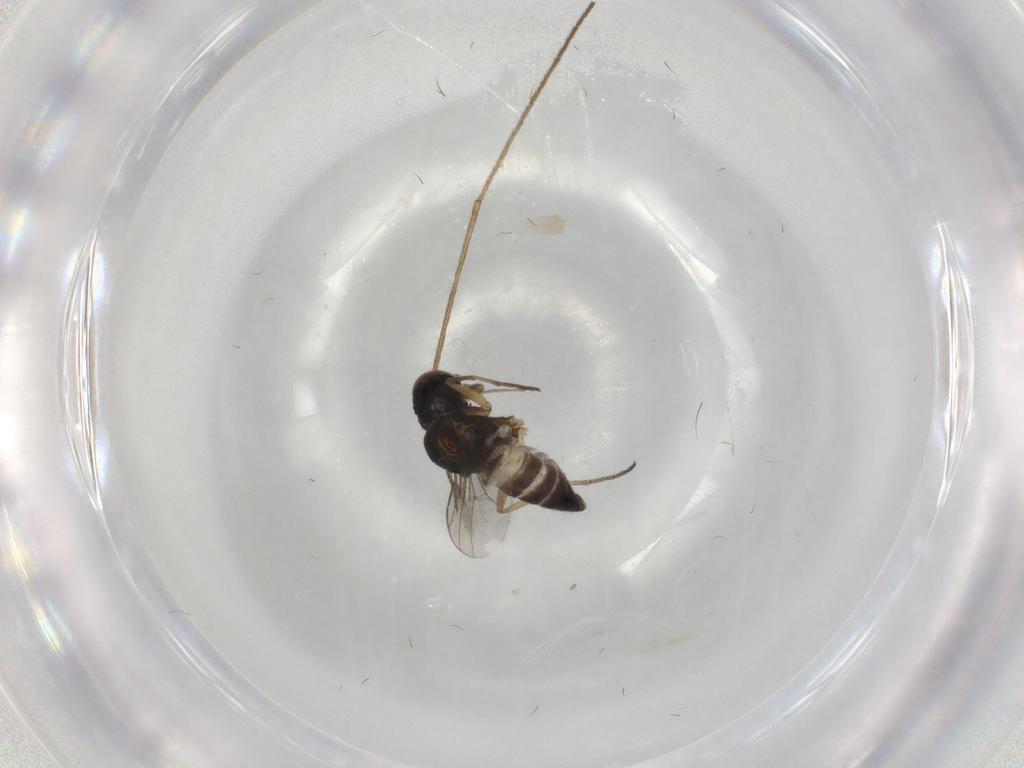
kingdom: Animalia
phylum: Arthropoda
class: Insecta
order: Diptera
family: Dolichopodidae
